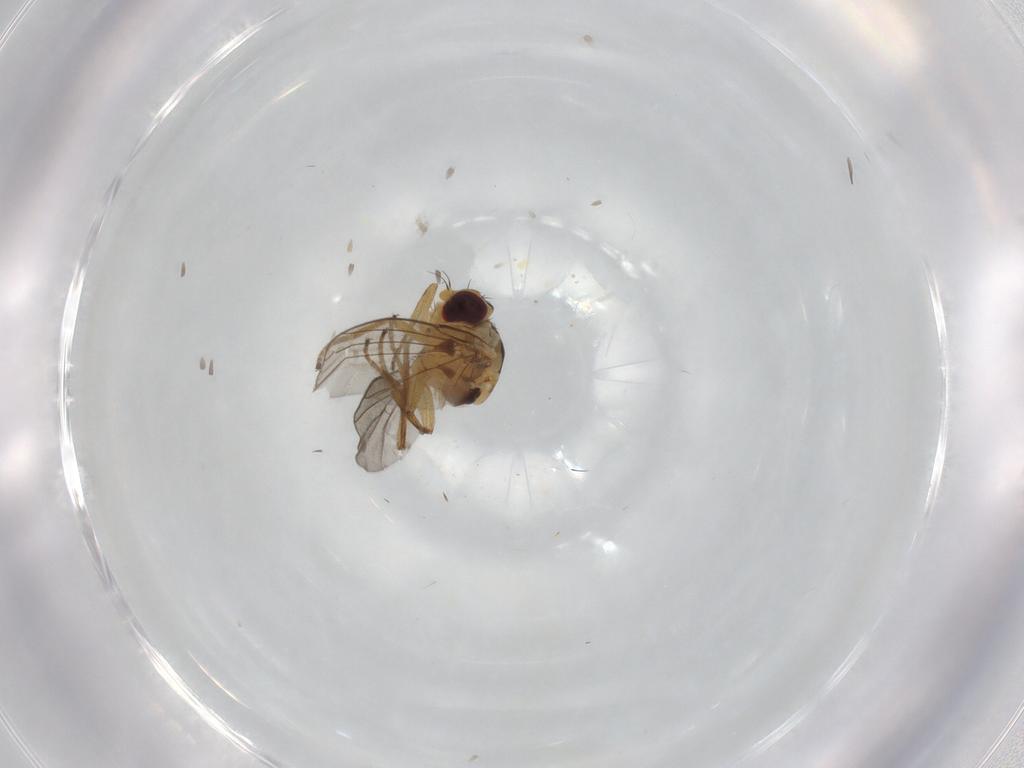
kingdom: Animalia
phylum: Arthropoda
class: Insecta
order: Diptera
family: Agromyzidae
